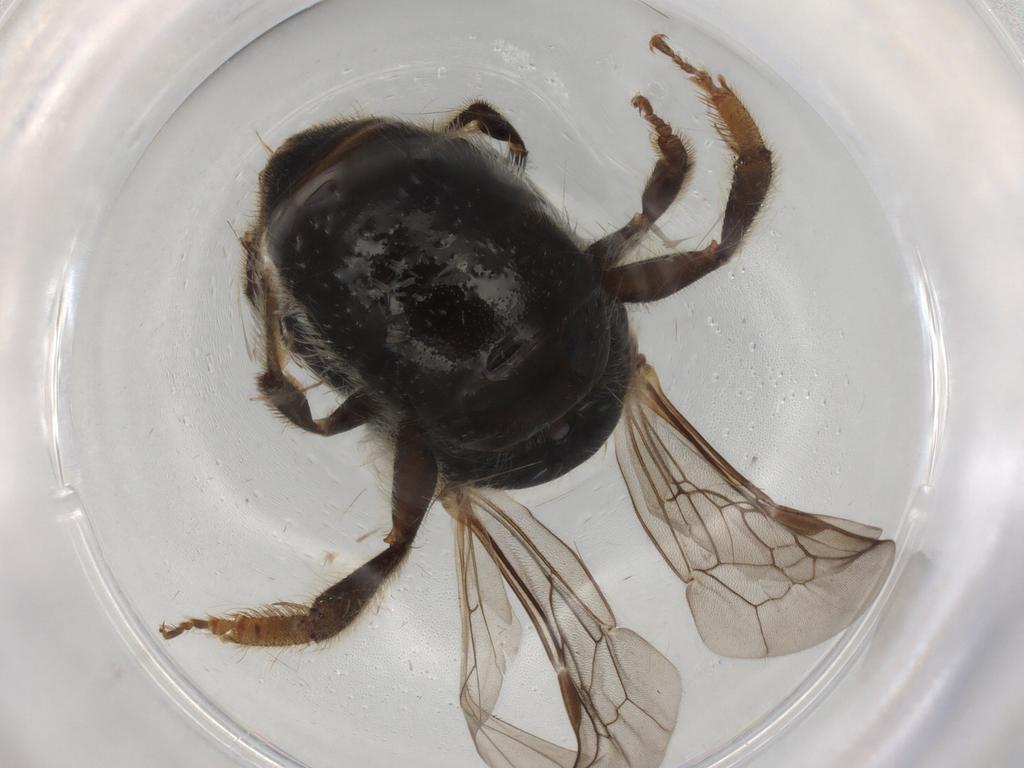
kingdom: Animalia
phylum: Arthropoda
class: Insecta
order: Hymenoptera
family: Halictidae
